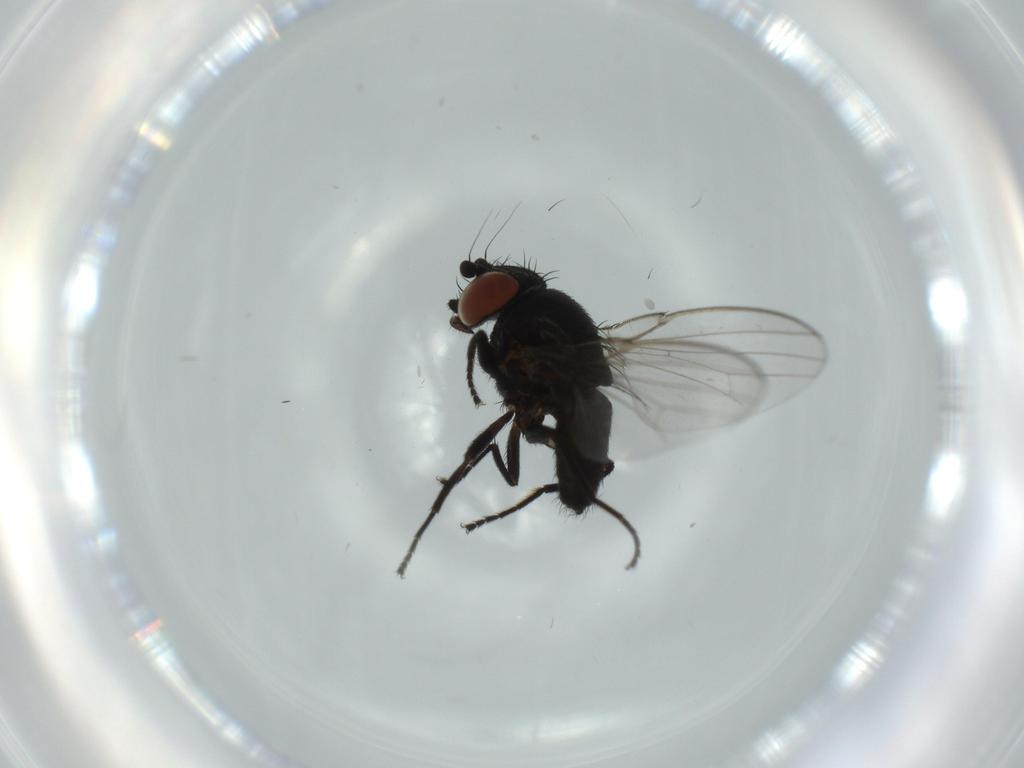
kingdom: Animalia
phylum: Arthropoda
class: Insecta
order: Diptera
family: Milichiidae
